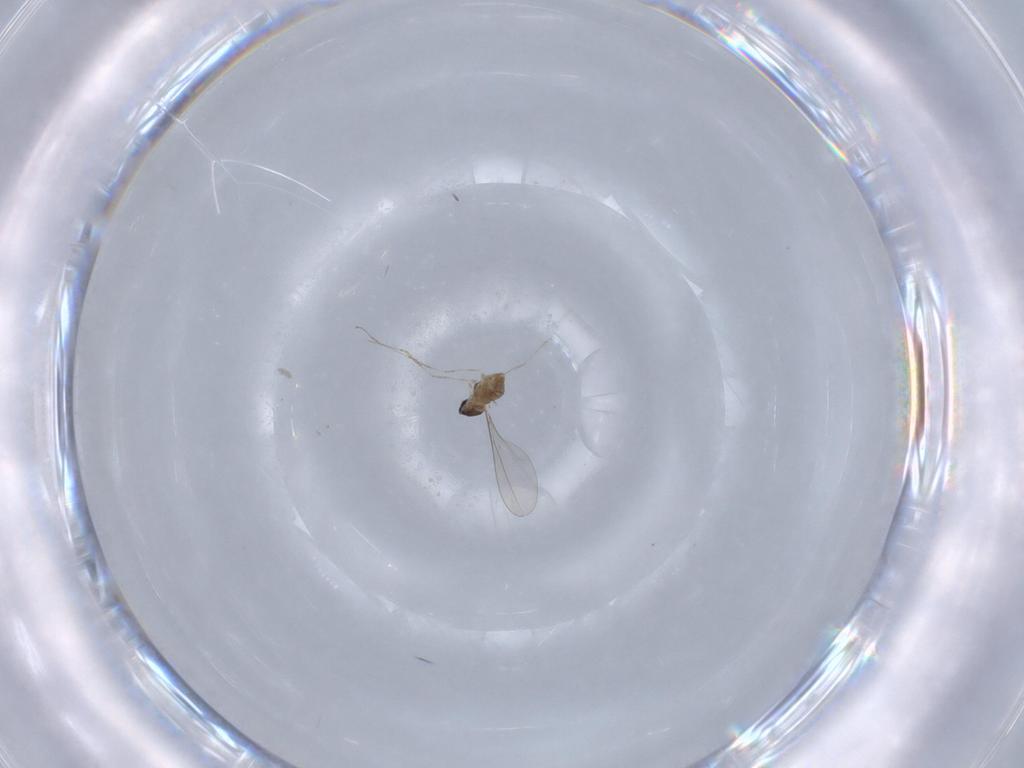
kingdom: Animalia
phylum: Arthropoda
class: Insecta
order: Diptera
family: Cecidomyiidae
